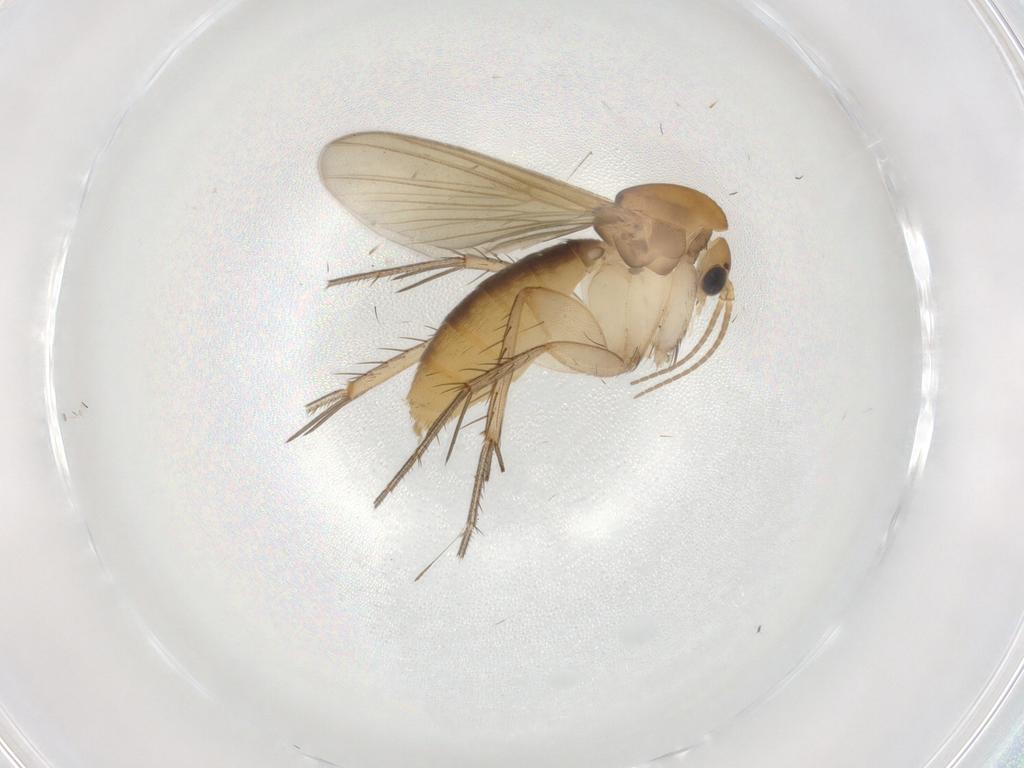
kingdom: Animalia
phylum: Arthropoda
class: Insecta
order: Diptera
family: Mycetophilidae
